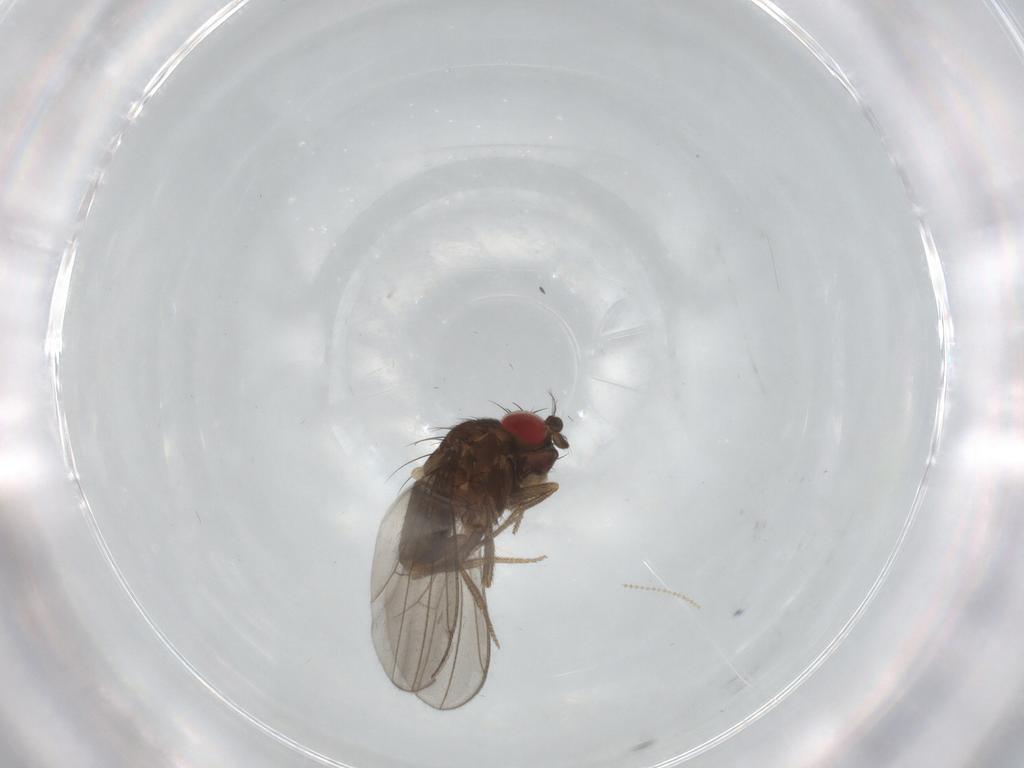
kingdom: Animalia
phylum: Arthropoda
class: Insecta
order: Diptera
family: Drosophilidae
